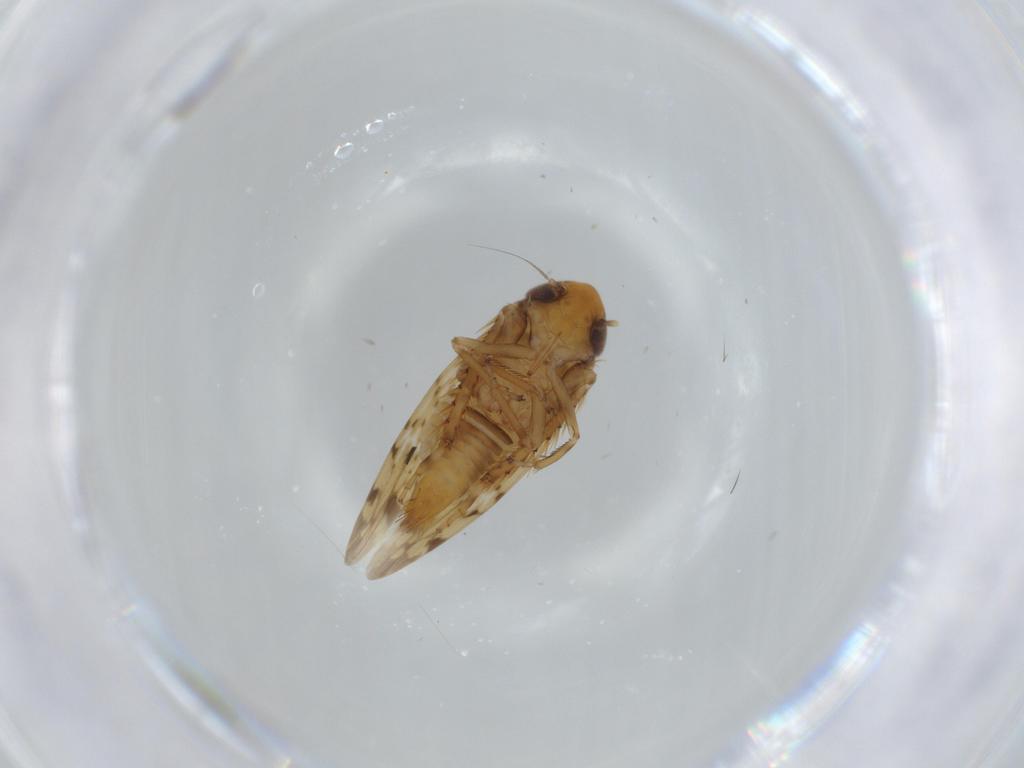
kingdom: Animalia
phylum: Arthropoda
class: Insecta
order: Hemiptera
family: Cicadellidae
